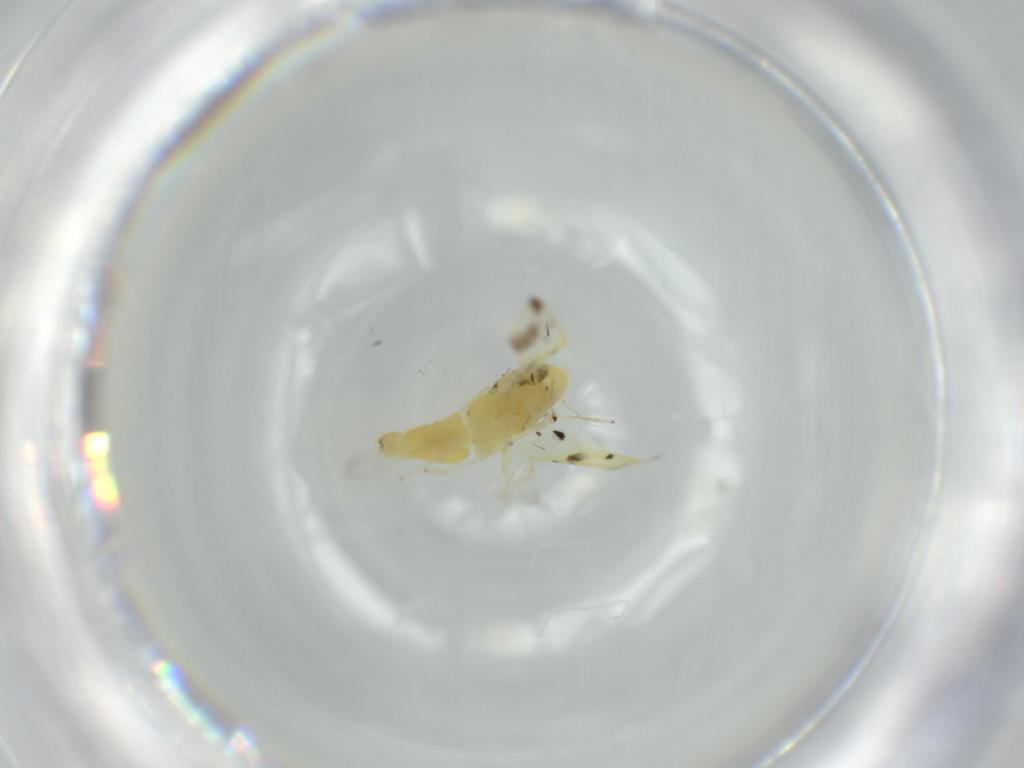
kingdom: Animalia
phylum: Arthropoda
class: Insecta
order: Hemiptera
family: Cicadellidae
